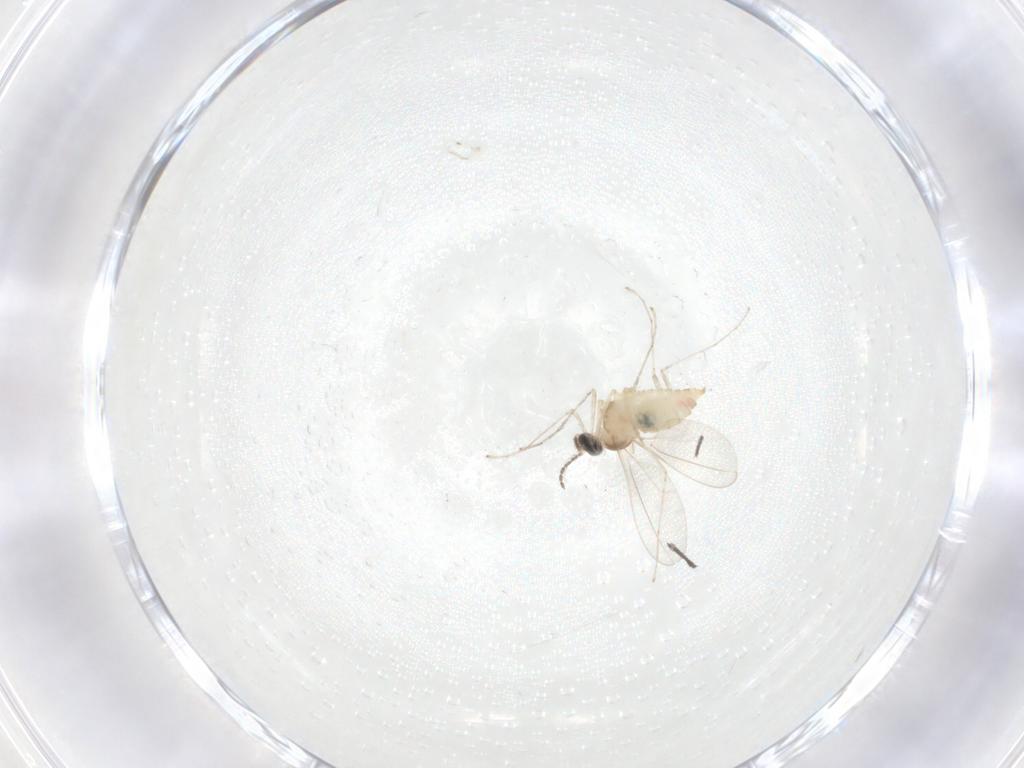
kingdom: Animalia
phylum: Arthropoda
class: Insecta
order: Diptera
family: Sciaridae
